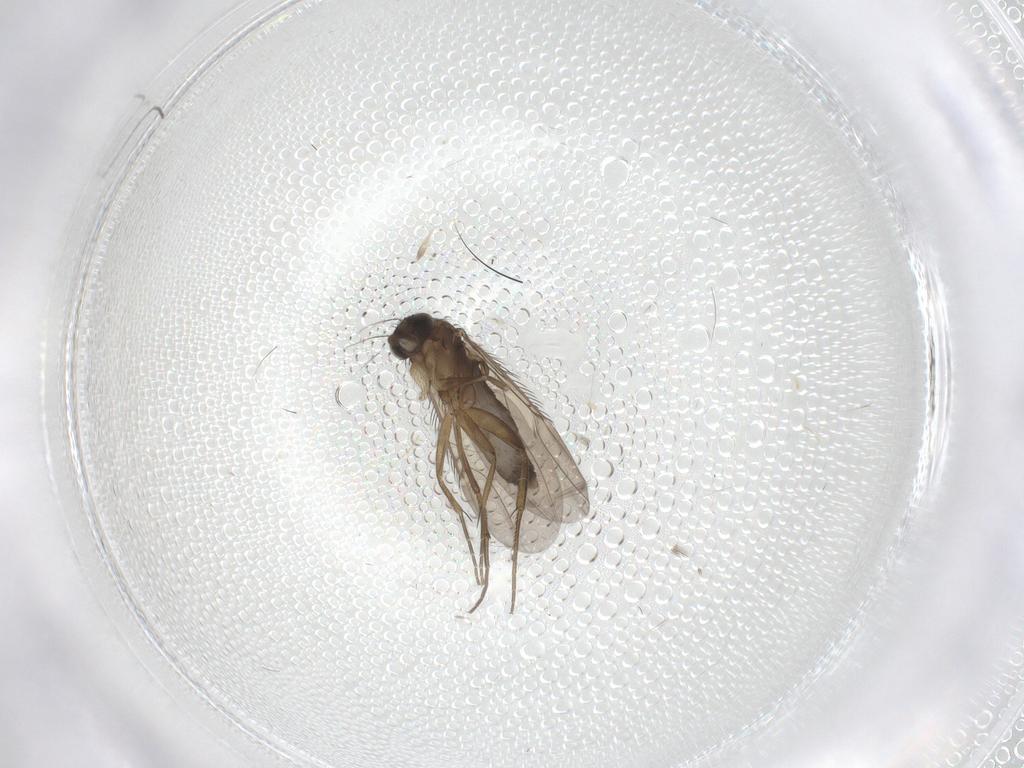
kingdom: Animalia
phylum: Arthropoda
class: Insecta
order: Diptera
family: Phoridae
